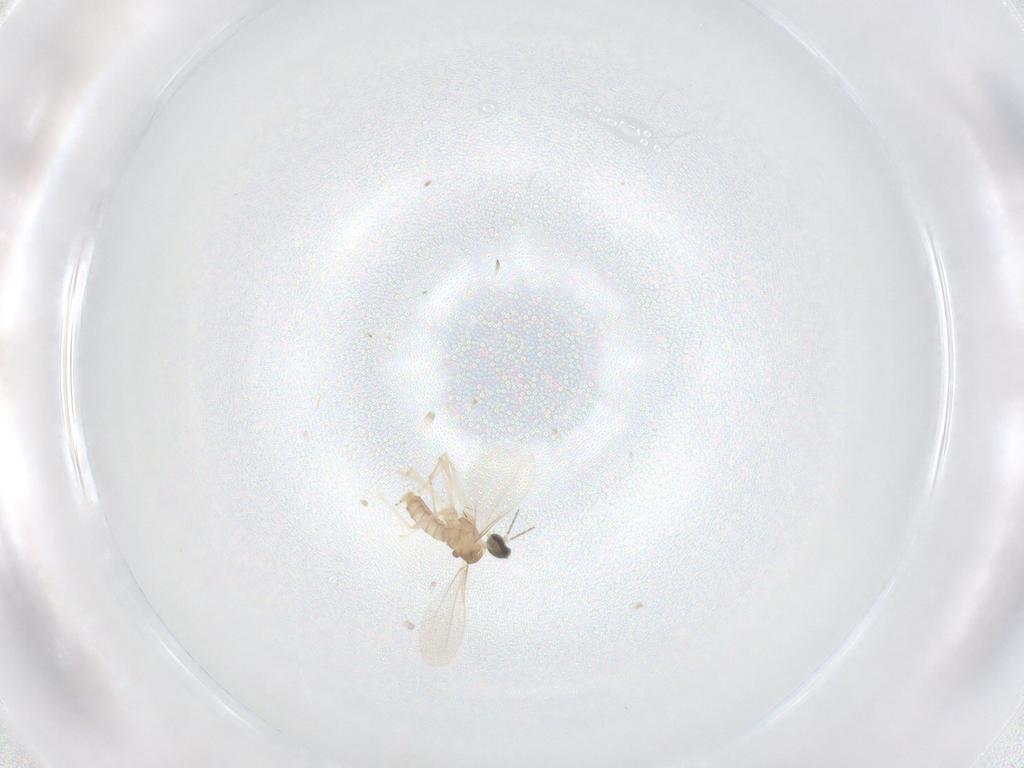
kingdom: Animalia
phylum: Arthropoda
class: Insecta
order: Diptera
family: Cecidomyiidae
